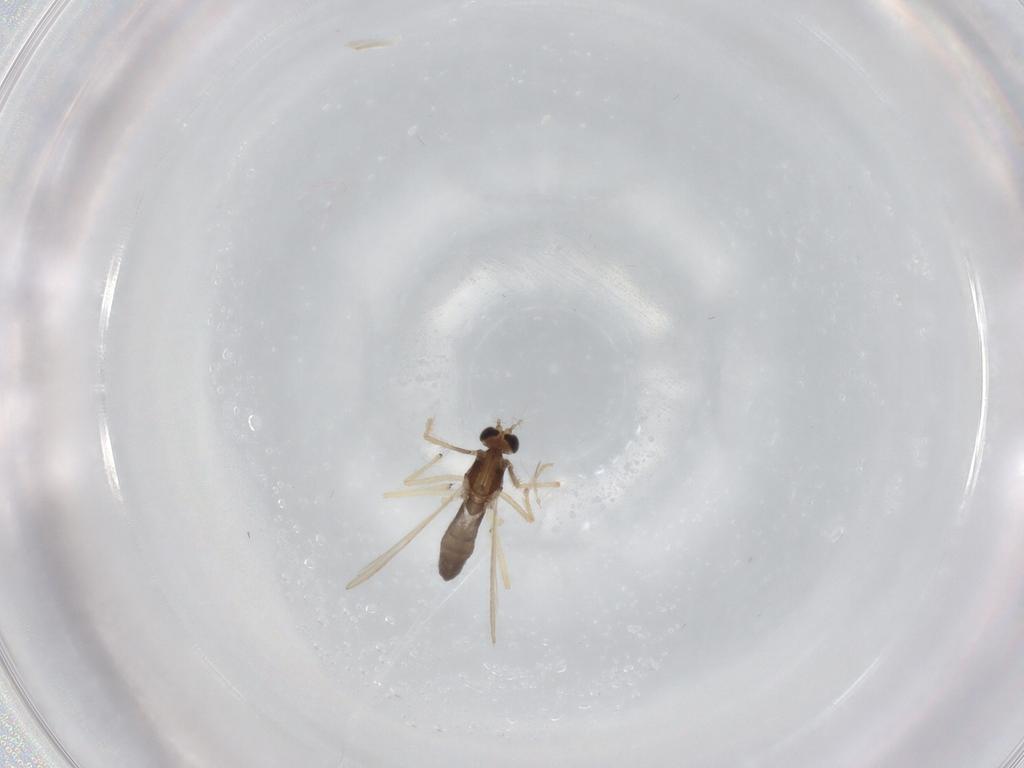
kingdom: Animalia
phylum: Arthropoda
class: Insecta
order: Diptera
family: Chironomidae
